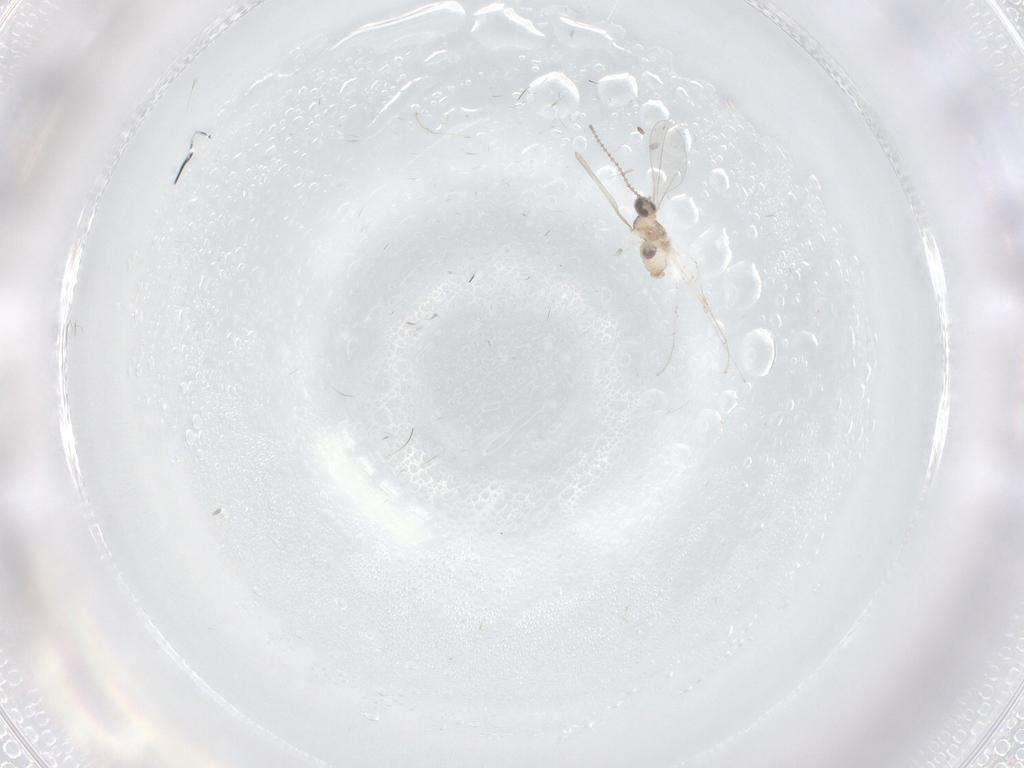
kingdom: Animalia
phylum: Arthropoda
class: Insecta
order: Diptera
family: Cecidomyiidae
